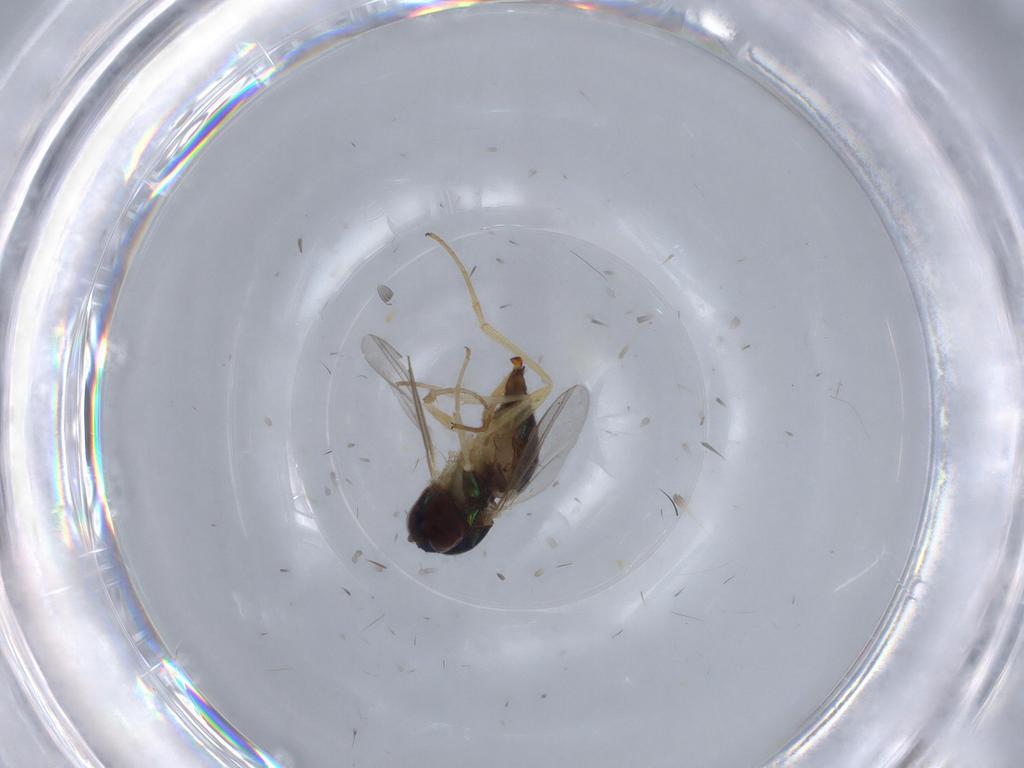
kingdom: Animalia
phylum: Arthropoda
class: Insecta
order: Diptera
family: Dolichopodidae
